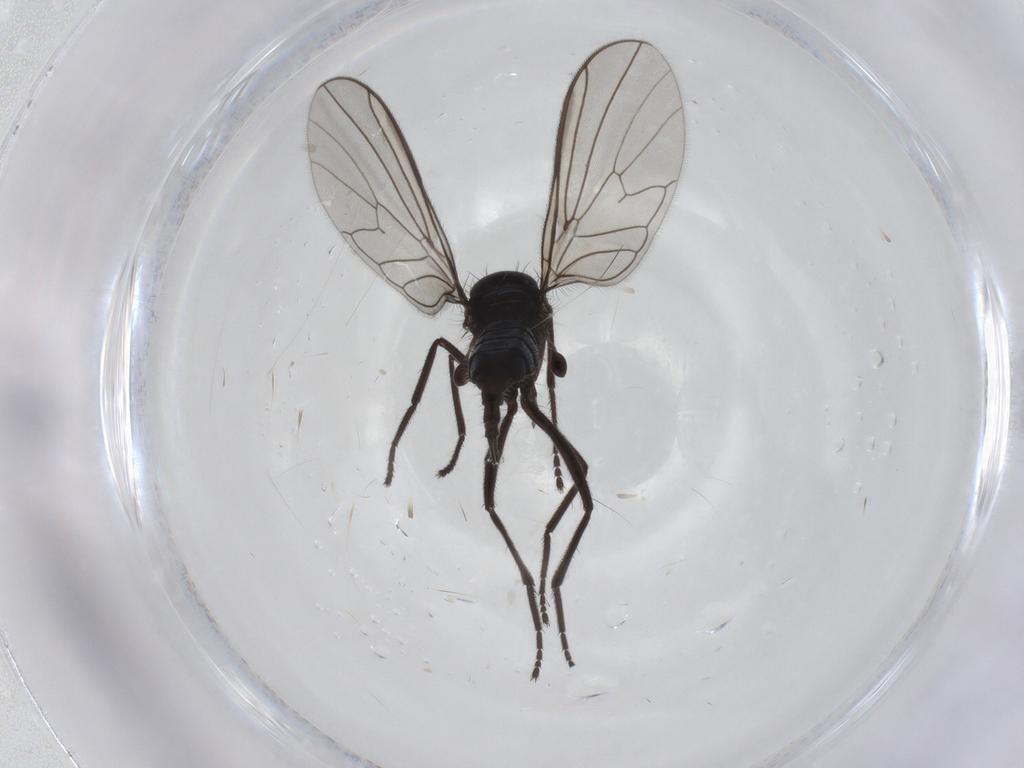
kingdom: Animalia
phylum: Arthropoda
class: Insecta
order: Diptera
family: Empididae
